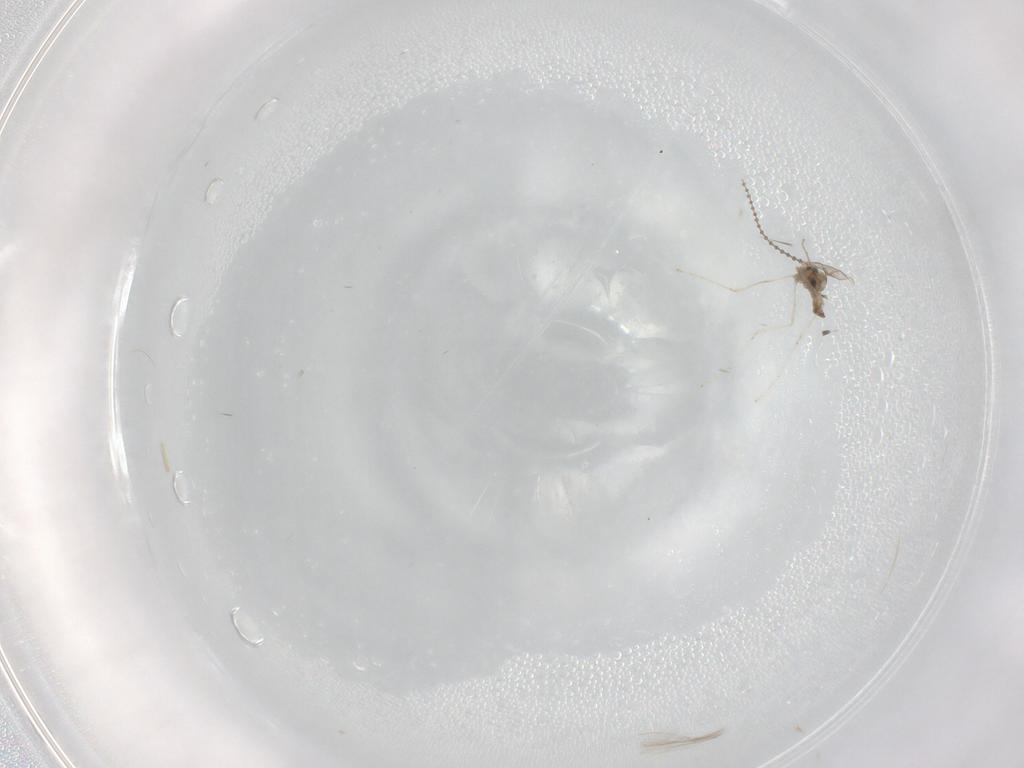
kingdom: Animalia
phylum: Arthropoda
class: Insecta
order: Diptera
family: Cecidomyiidae
